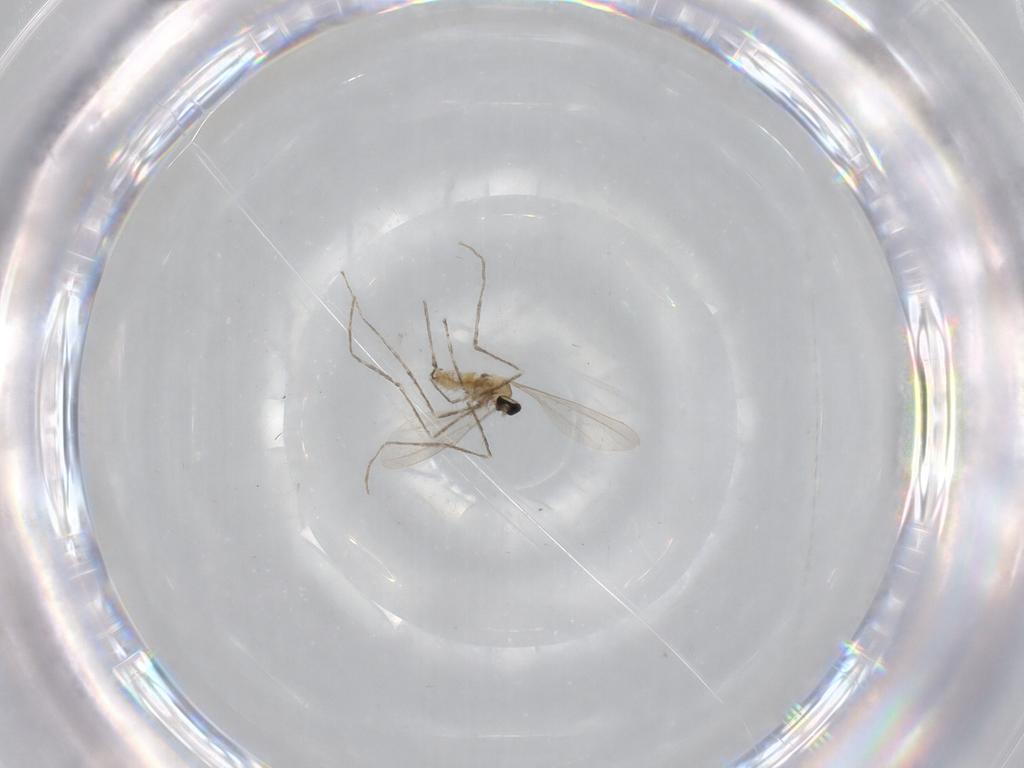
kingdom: Animalia
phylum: Arthropoda
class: Insecta
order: Diptera
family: Cecidomyiidae
